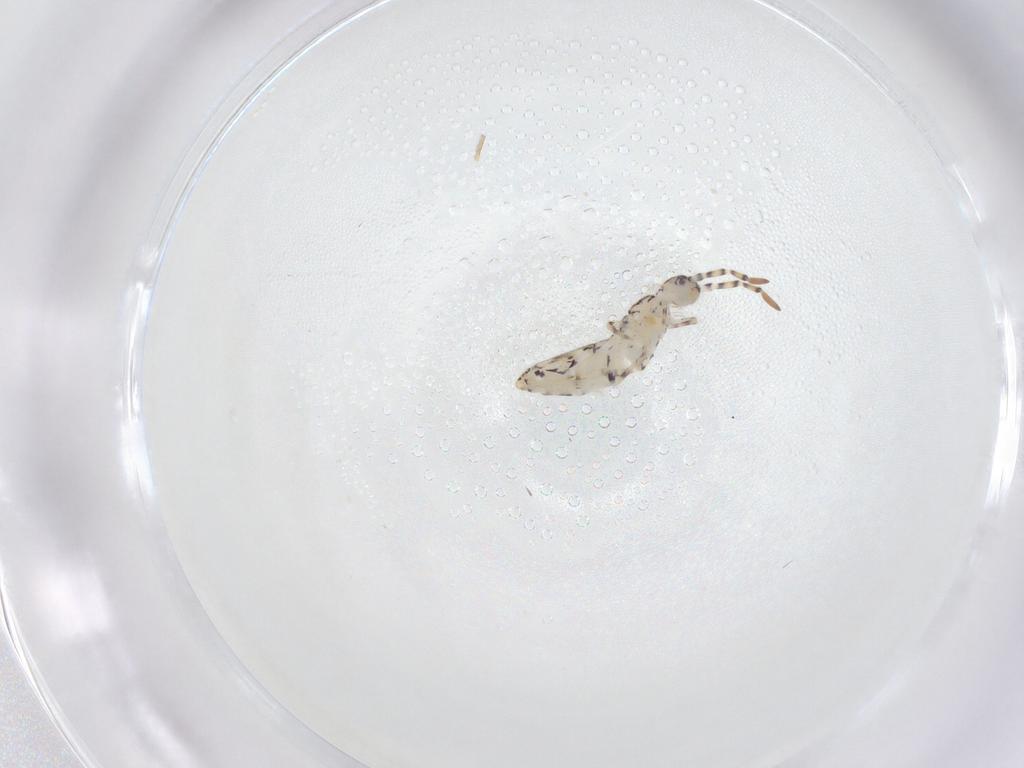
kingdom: Animalia
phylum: Arthropoda
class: Collembola
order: Entomobryomorpha
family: Entomobryidae
